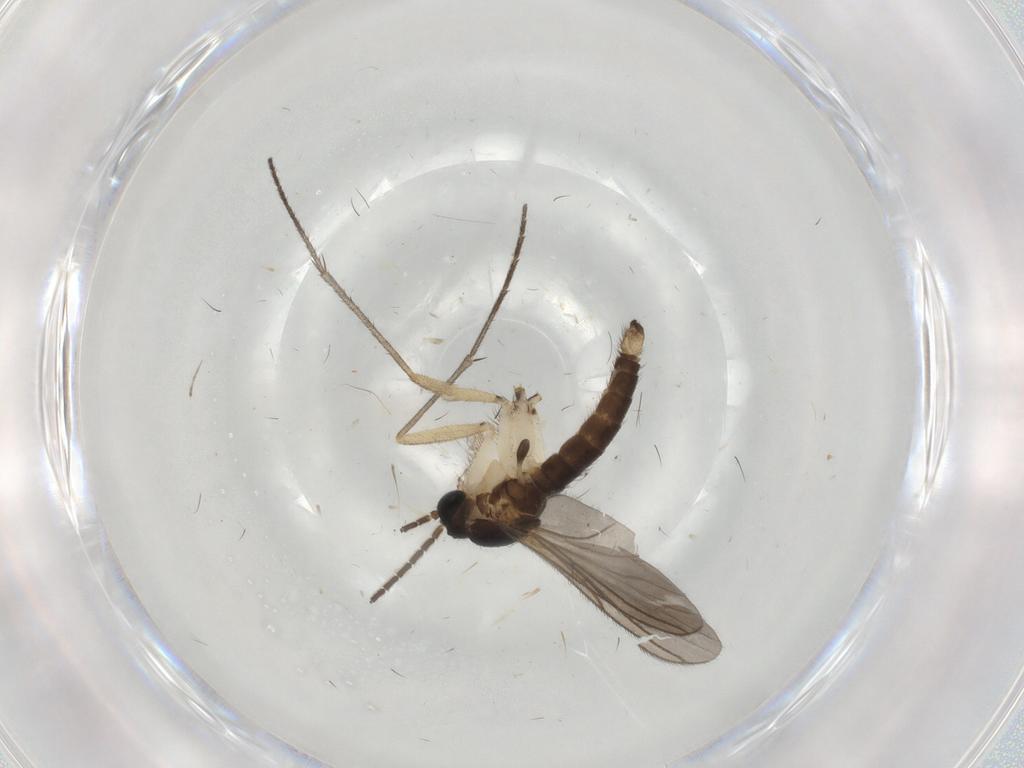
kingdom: Animalia
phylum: Arthropoda
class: Insecta
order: Diptera
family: Sciaridae
